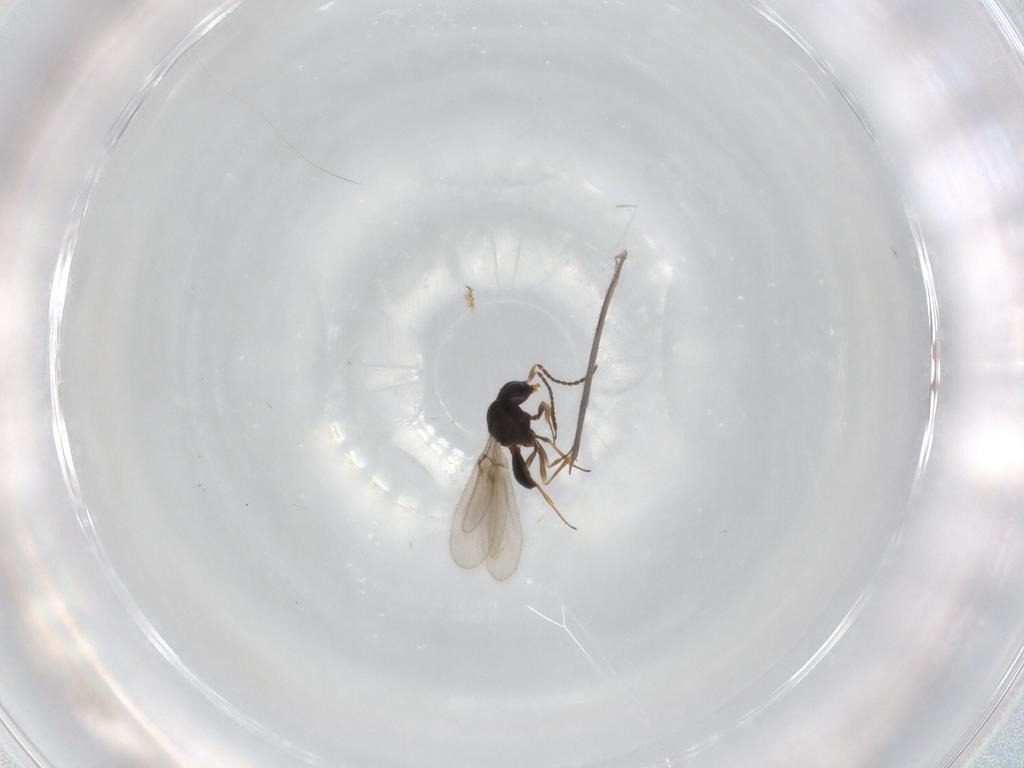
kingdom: Animalia
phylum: Arthropoda
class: Insecta
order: Hymenoptera
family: Scelionidae
